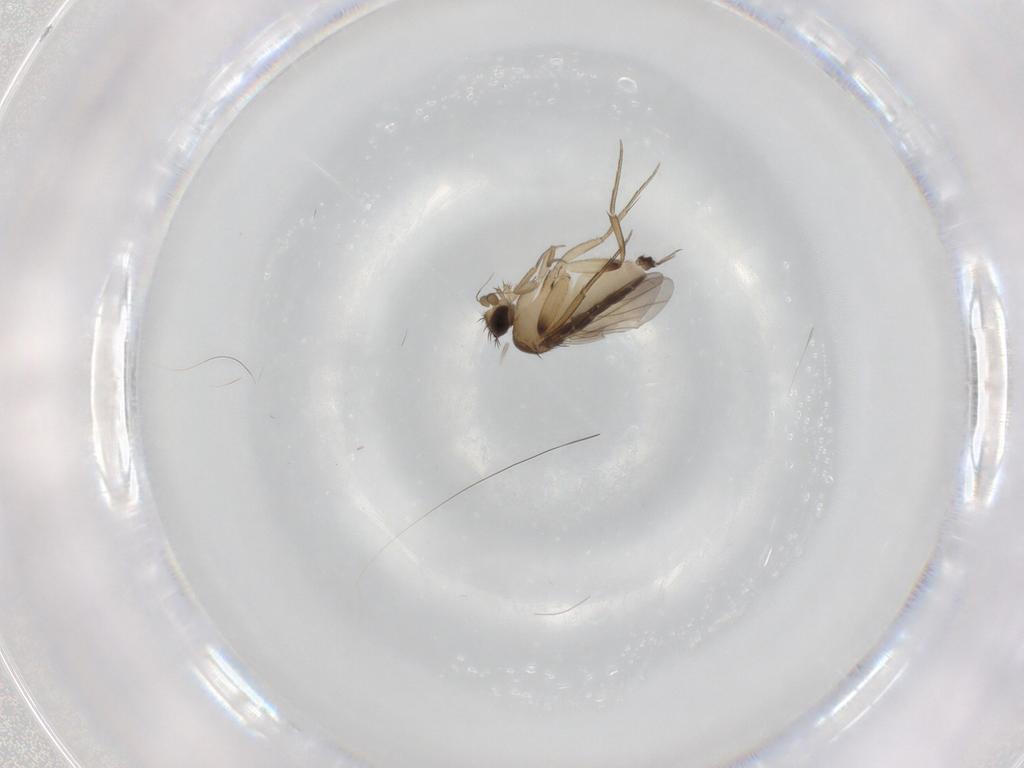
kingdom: Animalia
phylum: Arthropoda
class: Insecta
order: Diptera
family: Phoridae
